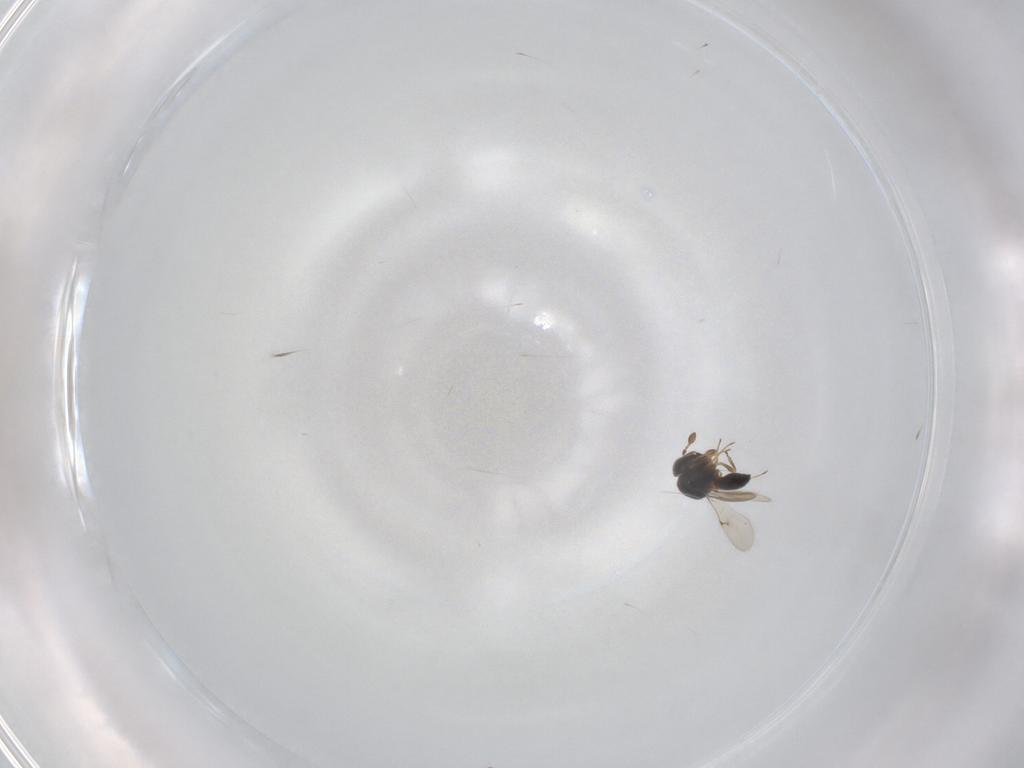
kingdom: Animalia
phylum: Arthropoda
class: Insecta
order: Hymenoptera
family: Scelionidae
